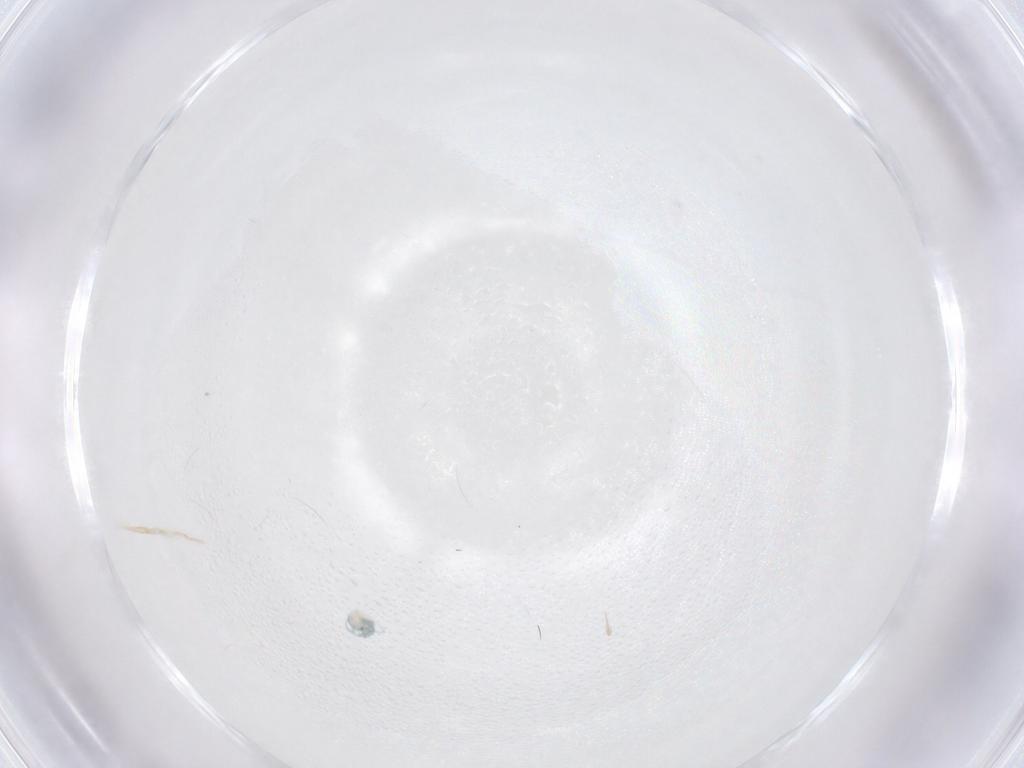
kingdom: Animalia
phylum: Arthropoda
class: Arachnida
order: Trombidiformes
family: Arrenuridae
